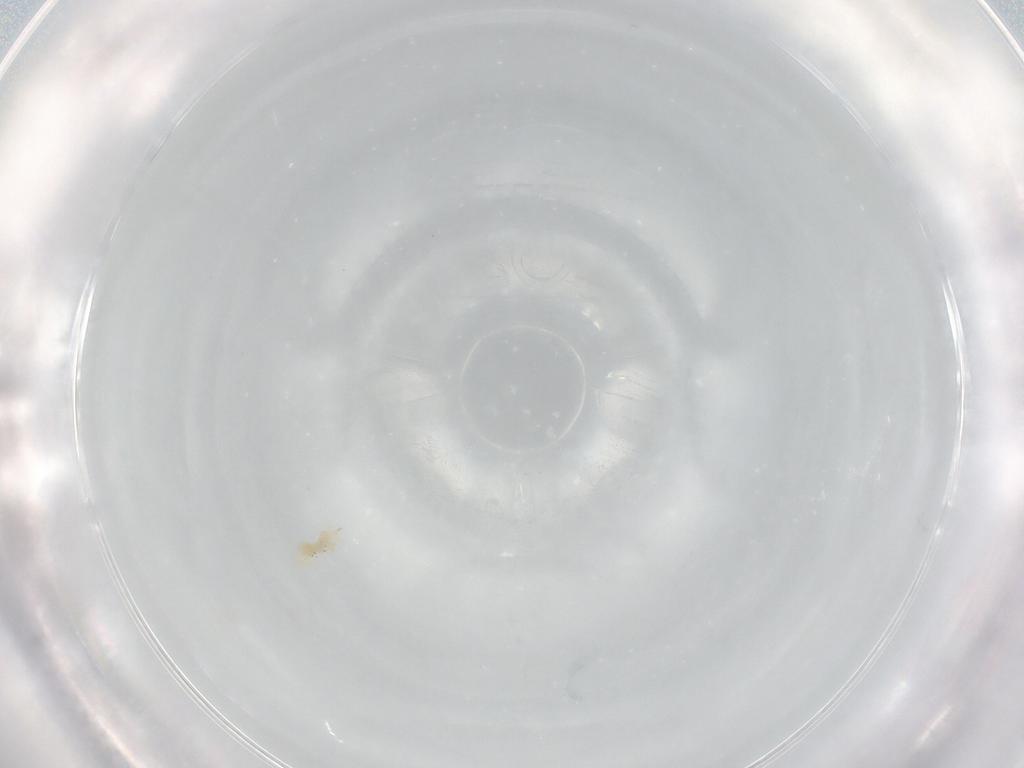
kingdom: Animalia
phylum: Arthropoda
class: Arachnida
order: Trombidiformes
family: Bdellidae
